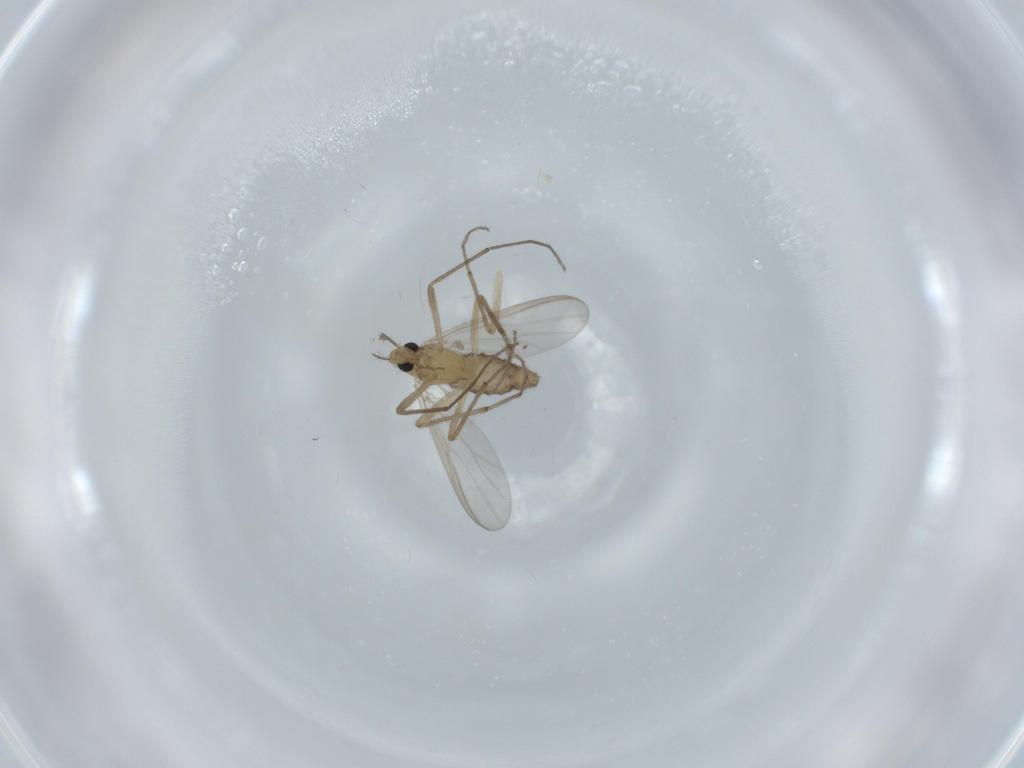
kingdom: Animalia
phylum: Arthropoda
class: Insecta
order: Diptera
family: Chironomidae
